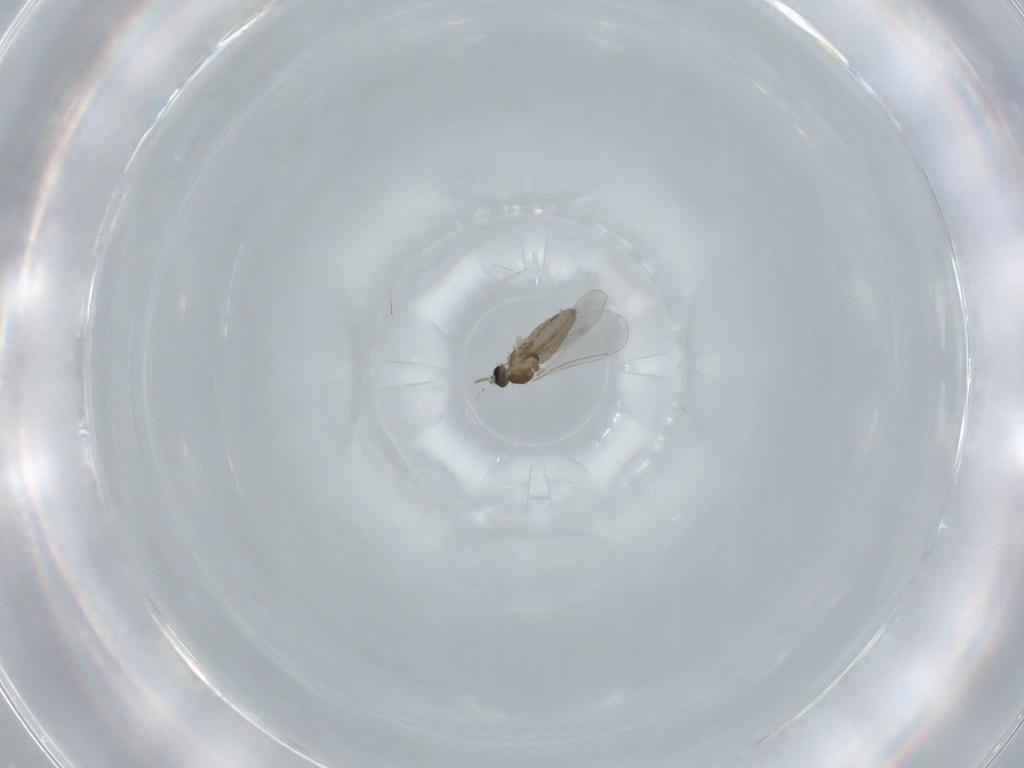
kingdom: Animalia
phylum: Arthropoda
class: Insecta
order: Diptera
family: Cecidomyiidae
